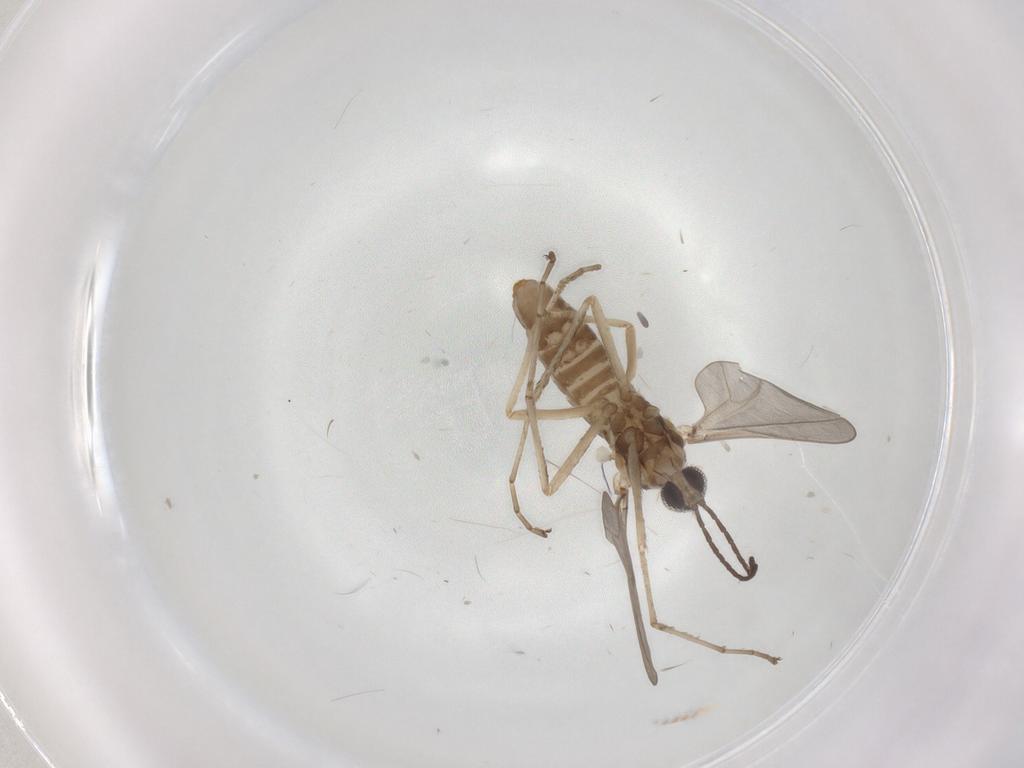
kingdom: Animalia
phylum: Arthropoda
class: Insecta
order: Diptera
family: Cecidomyiidae
